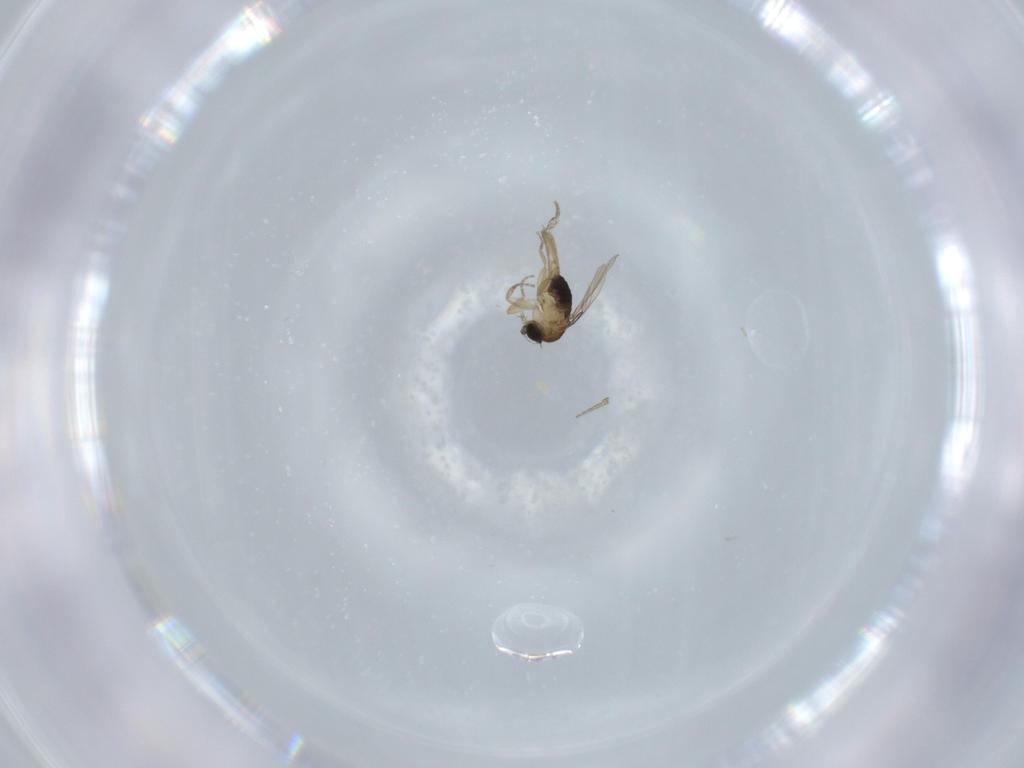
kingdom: Animalia
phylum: Arthropoda
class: Insecta
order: Diptera
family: Sciaridae
